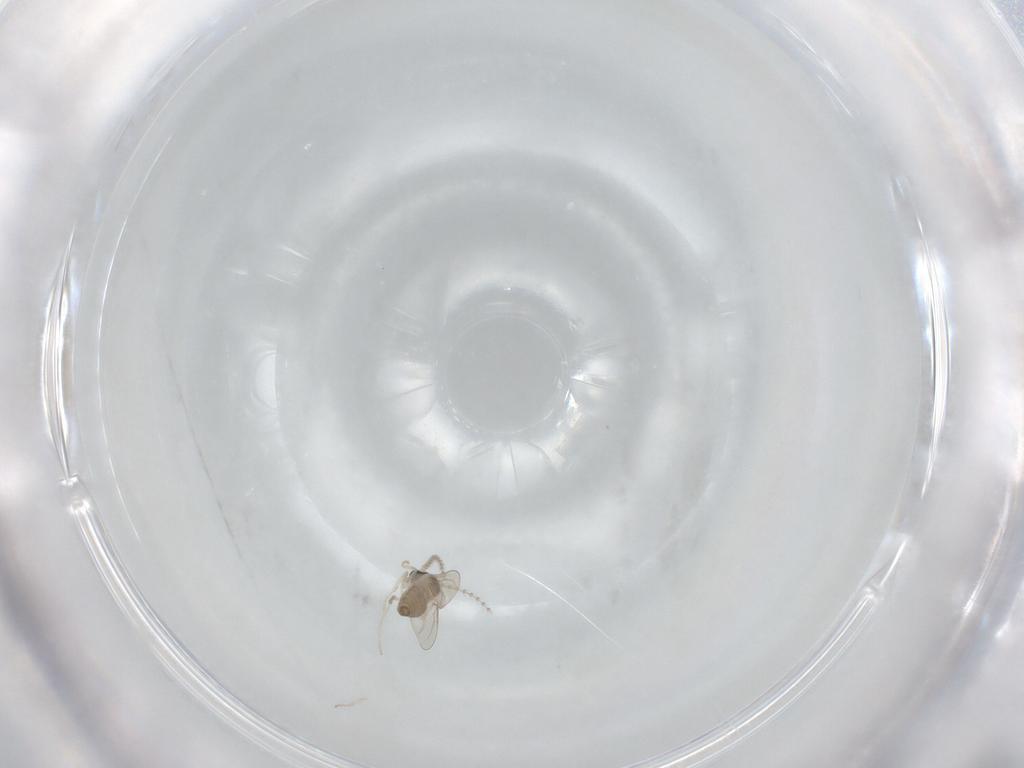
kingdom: Animalia
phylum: Arthropoda
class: Insecta
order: Diptera
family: Cecidomyiidae
